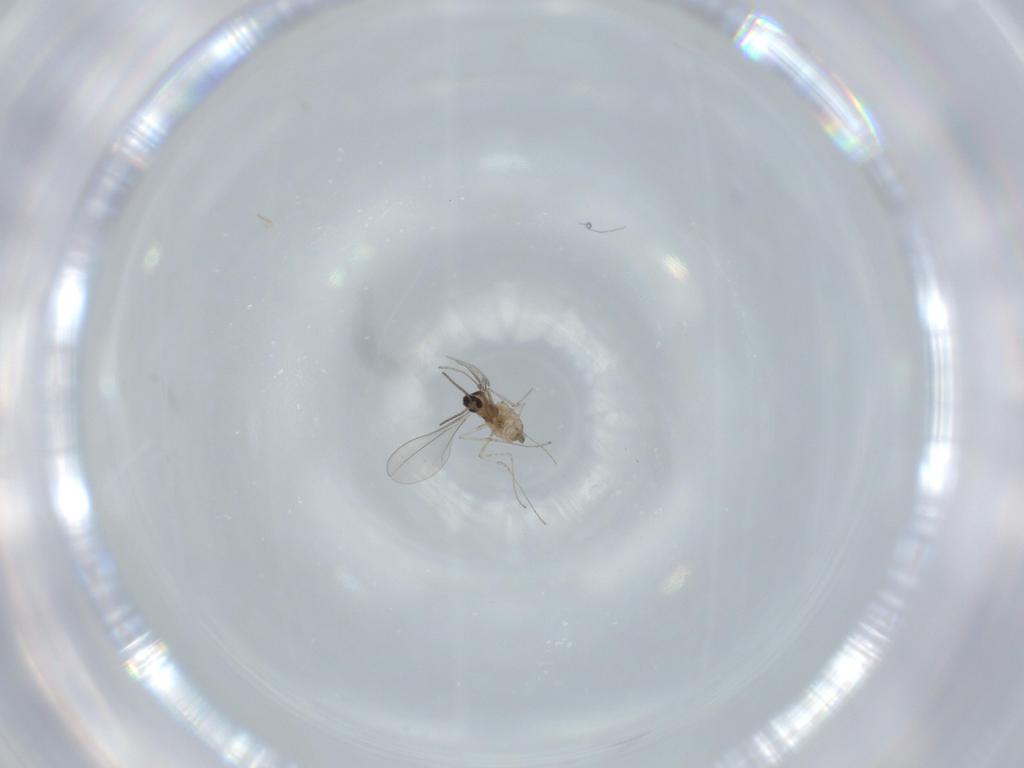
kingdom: Animalia
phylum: Arthropoda
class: Insecta
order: Diptera
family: Cecidomyiidae
